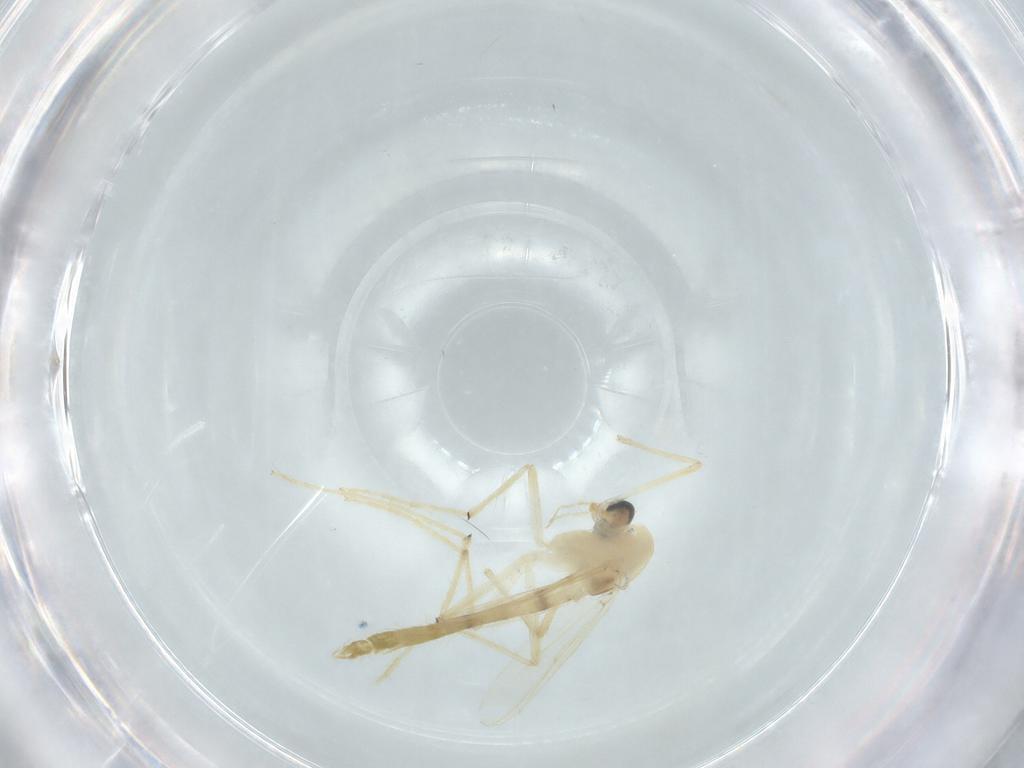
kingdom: Animalia
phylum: Arthropoda
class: Insecta
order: Diptera
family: Chironomidae
